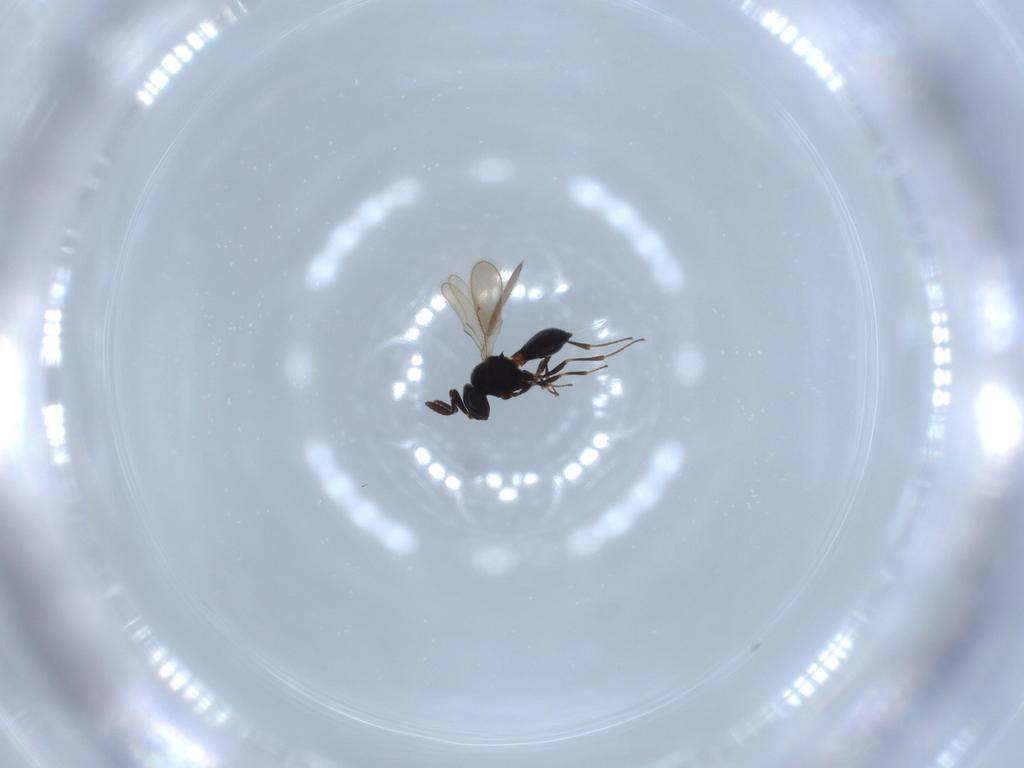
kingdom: Animalia
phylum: Arthropoda
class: Insecta
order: Hymenoptera
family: Scelionidae
